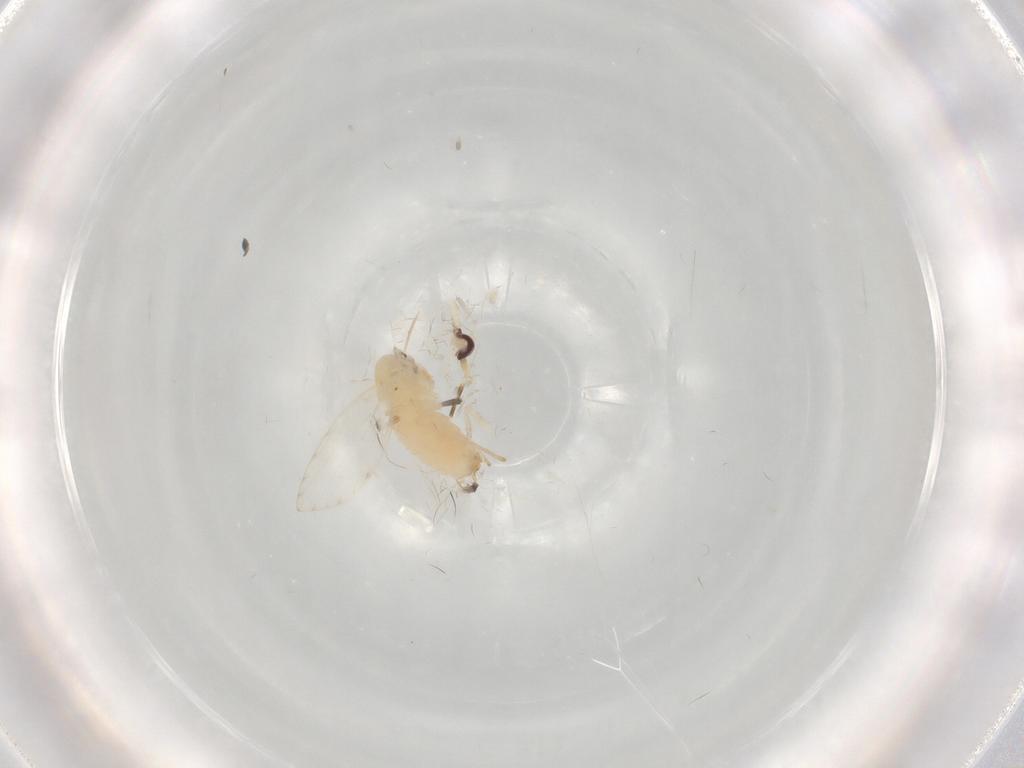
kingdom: Animalia
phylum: Arthropoda
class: Insecta
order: Diptera
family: Psychodidae
